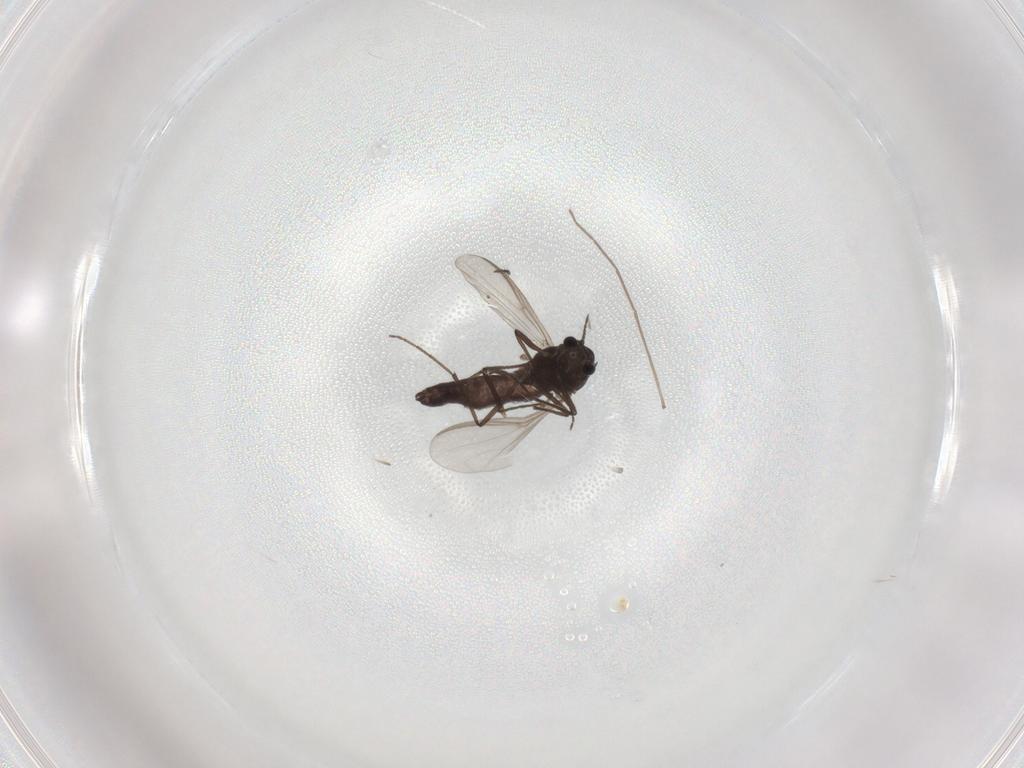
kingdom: Animalia
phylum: Arthropoda
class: Insecta
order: Diptera
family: Chironomidae
